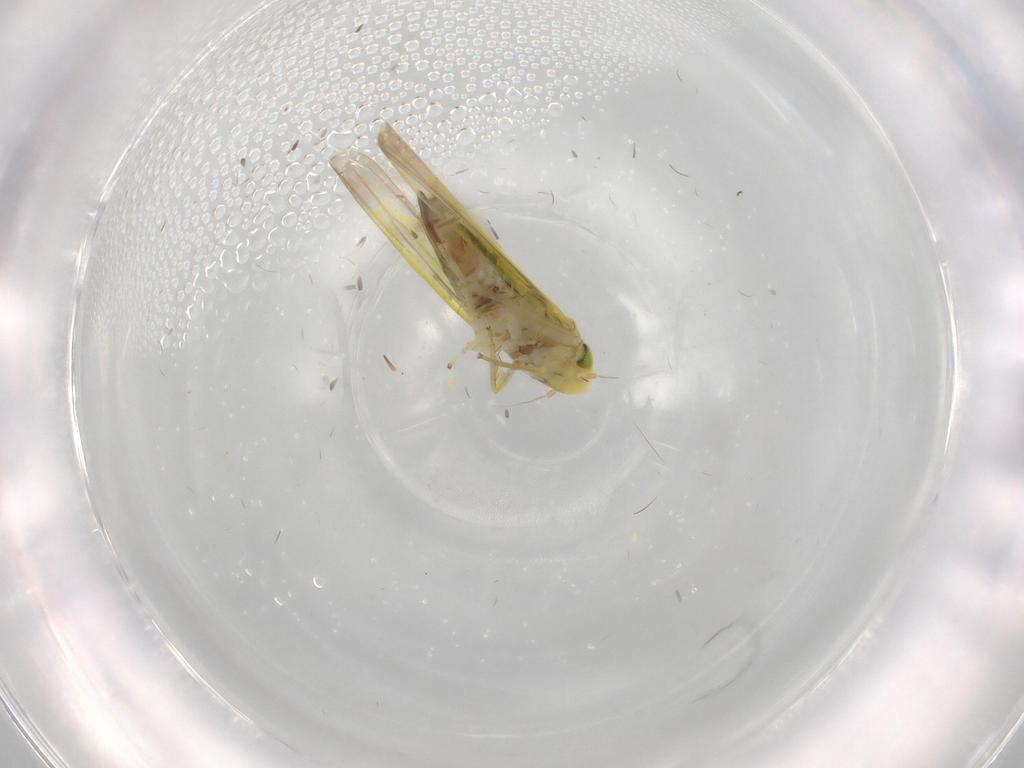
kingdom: Animalia
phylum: Arthropoda
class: Insecta
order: Hemiptera
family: Cicadellidae
